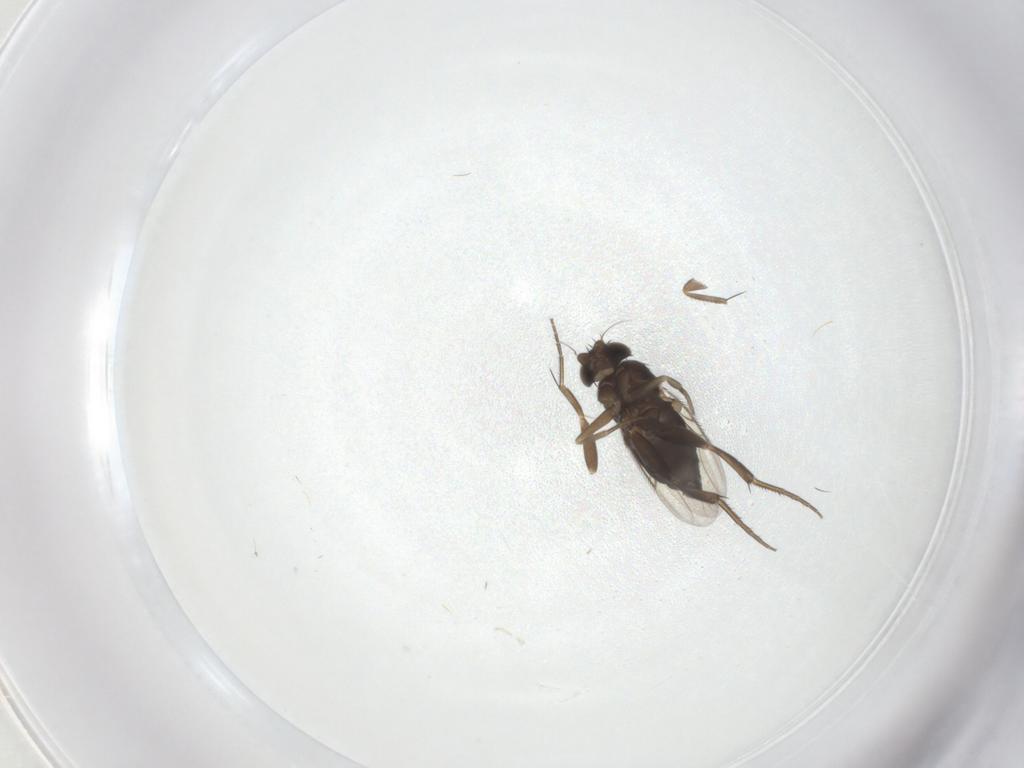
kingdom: Animalia
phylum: Arthropoda
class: Insecta
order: Diptera
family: Phoridae
